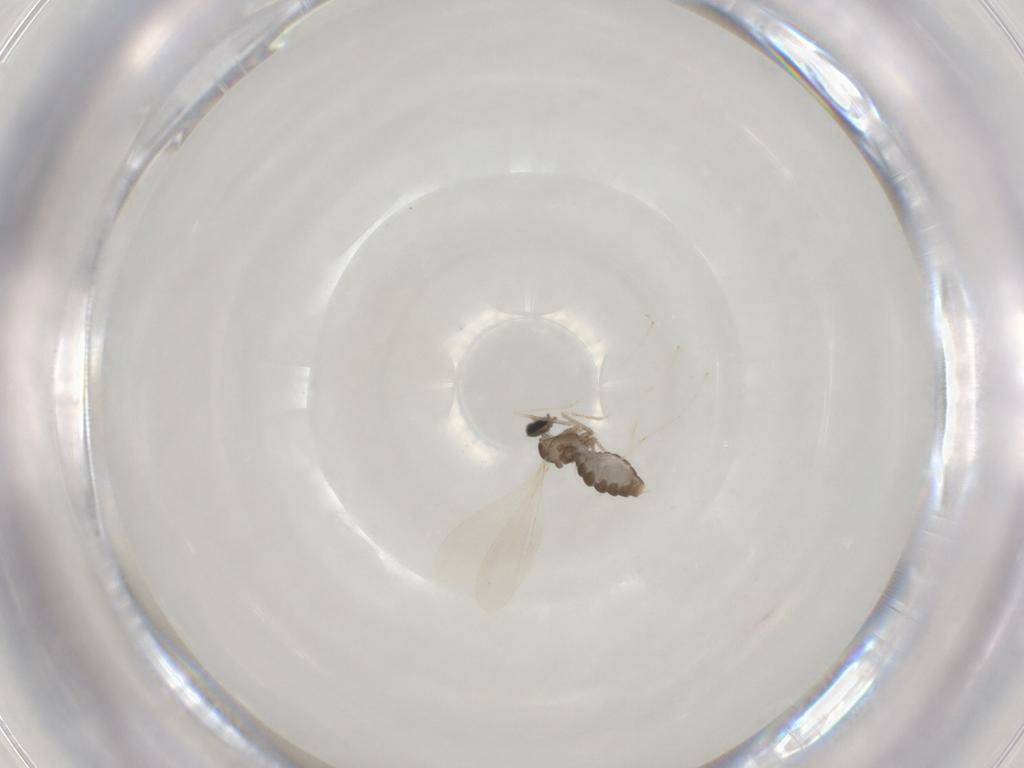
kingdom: Animalia
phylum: Arthropoda
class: Insecta
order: Diptera
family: Cecidomyiidae
